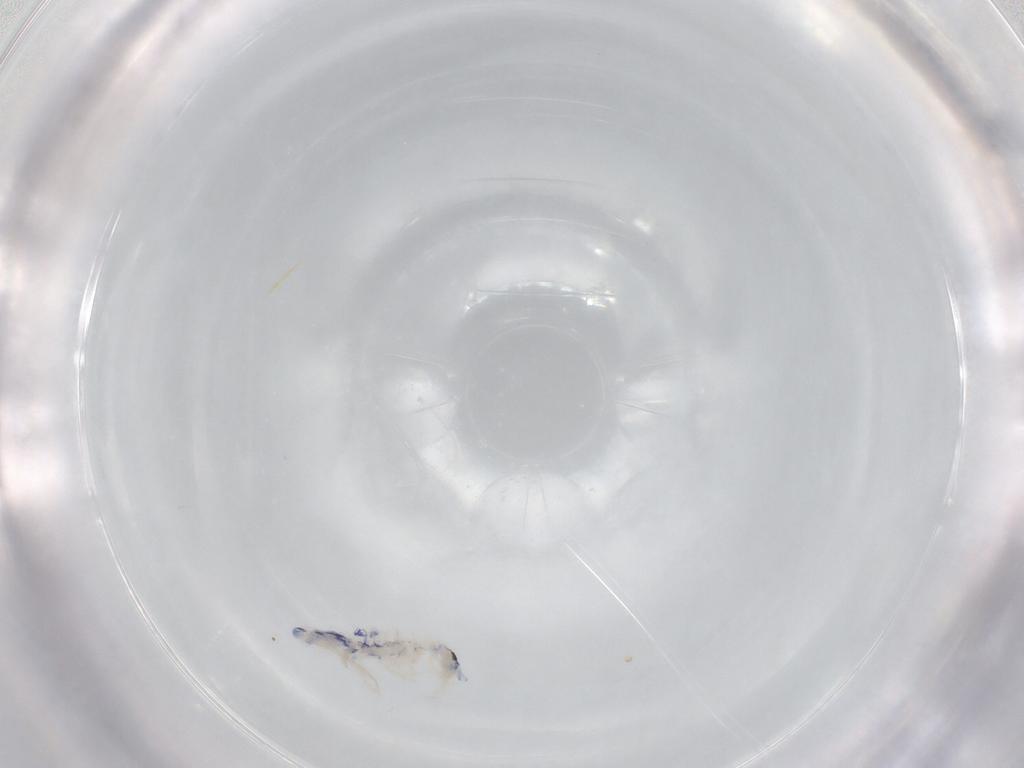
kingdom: Animalia
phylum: Arthropoda
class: Collembola
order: Entomobryomorpha
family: Entomobryidae
